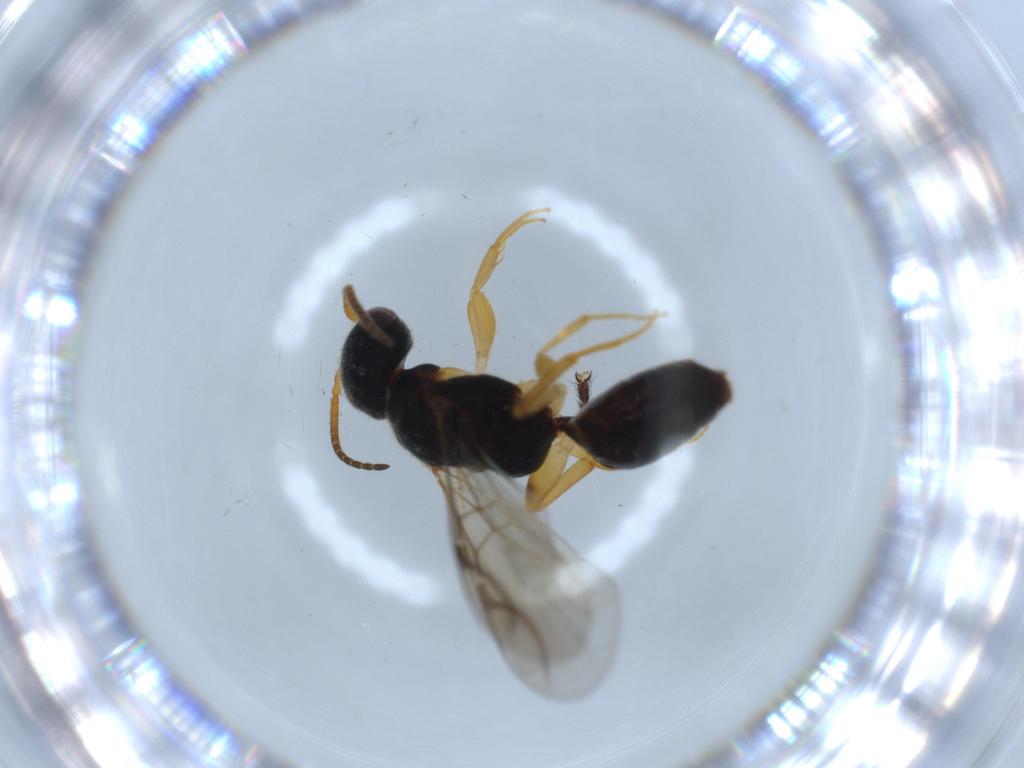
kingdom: Animalia
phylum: Arthropoda
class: Insecta
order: Hymenoptera
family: Bethylidae
